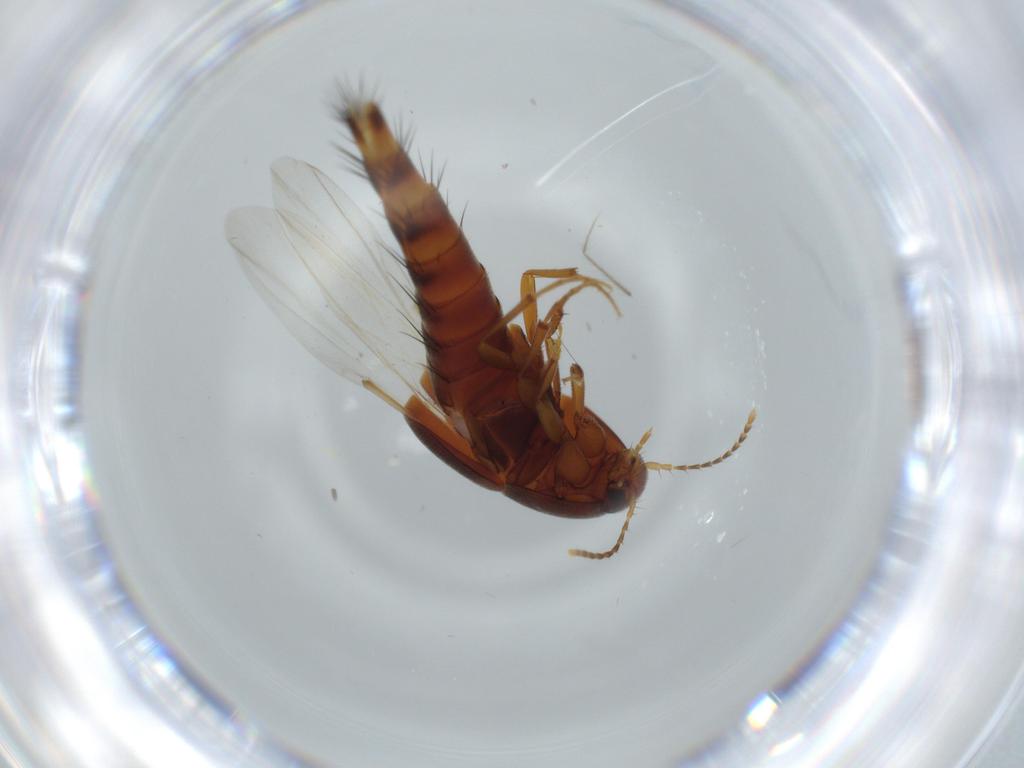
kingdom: Animalia
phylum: Arthropoda
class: Insecta
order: Coleoptera
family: Staphylinidae
